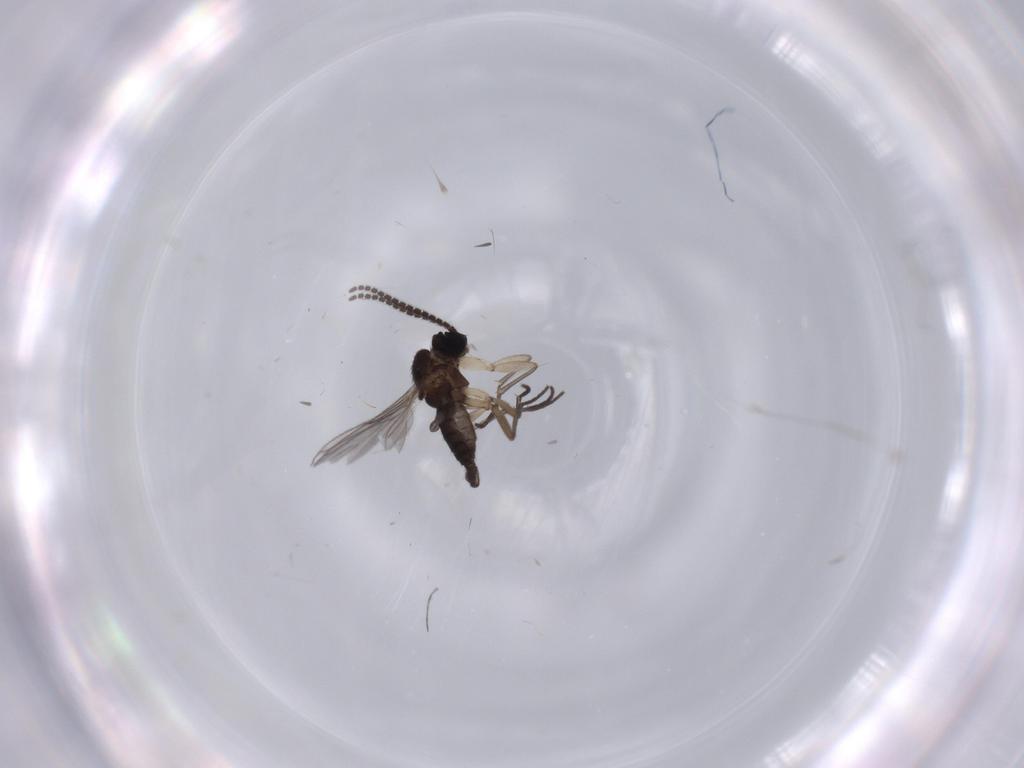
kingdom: Animalia
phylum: Arthropoda
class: Insecta
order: Diptera
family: Sciaridae
